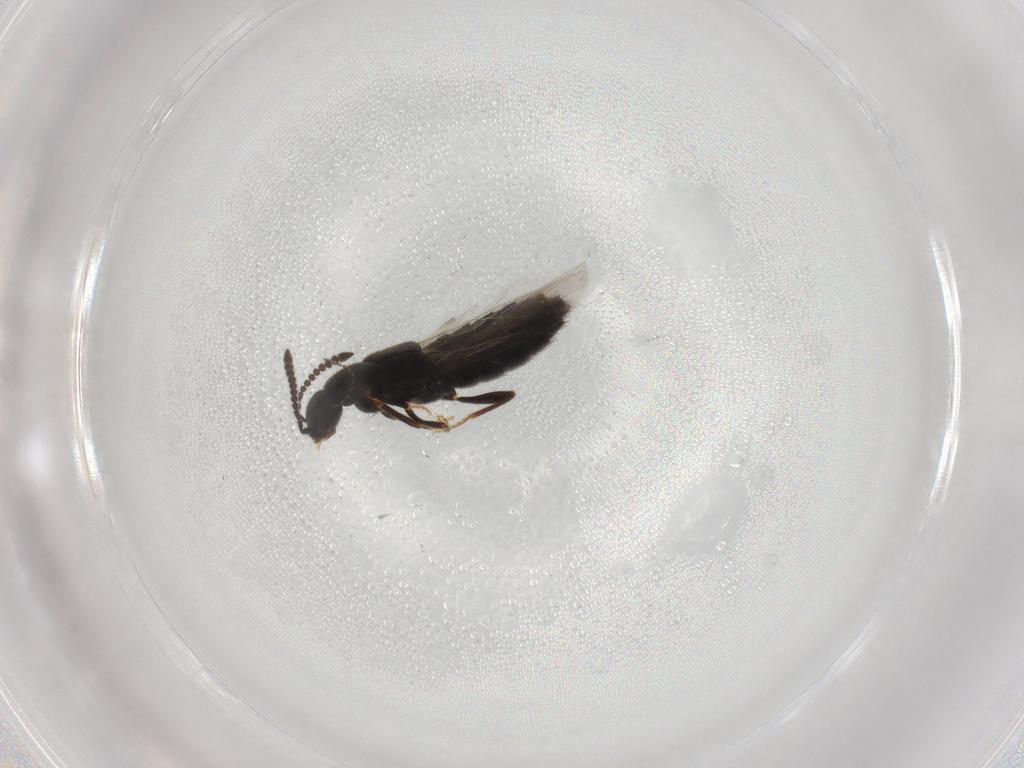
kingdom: Animalia
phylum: Arthropoda
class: Insecta
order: Coleoptera
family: Staphylinidae
